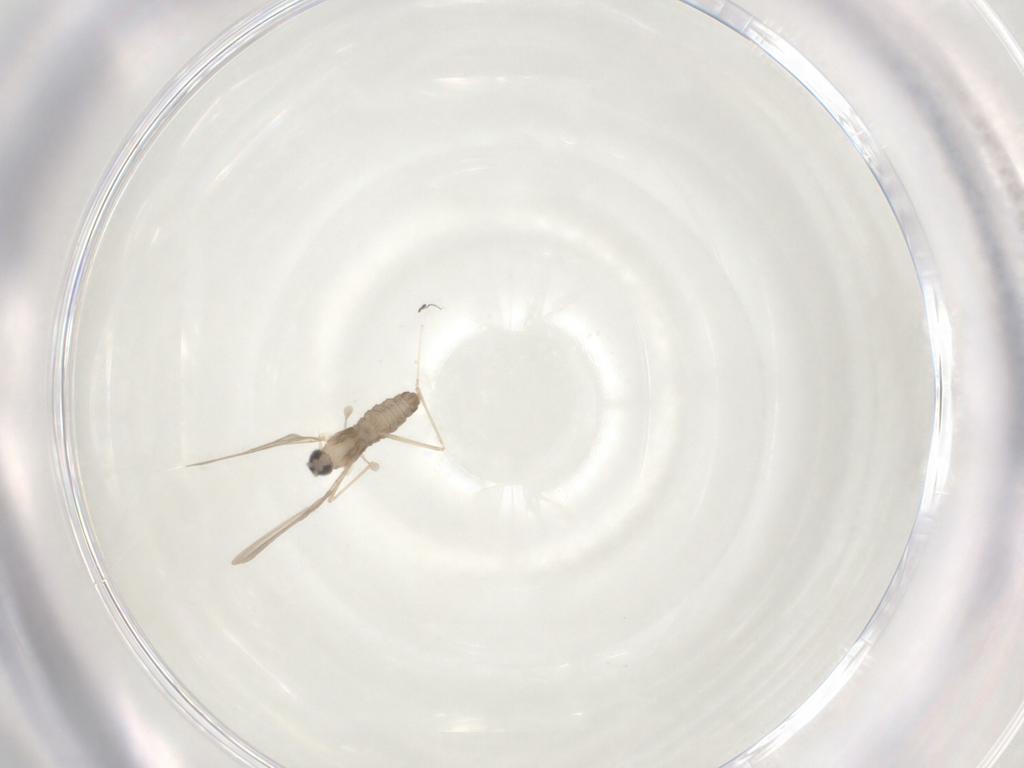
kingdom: Animalia
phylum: Arthropoda
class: Insecta
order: Diptera
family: Cecidomyiidae
